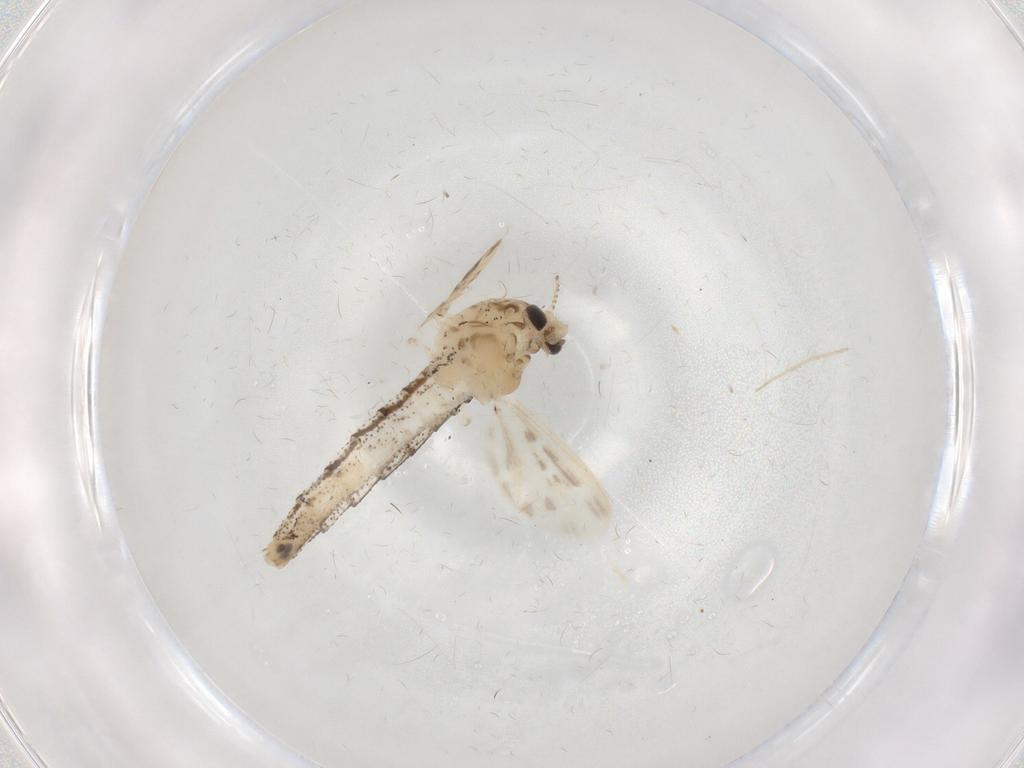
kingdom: Animalia
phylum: Arthropoda
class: Insecta
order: Diptera
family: Chaoboridae
